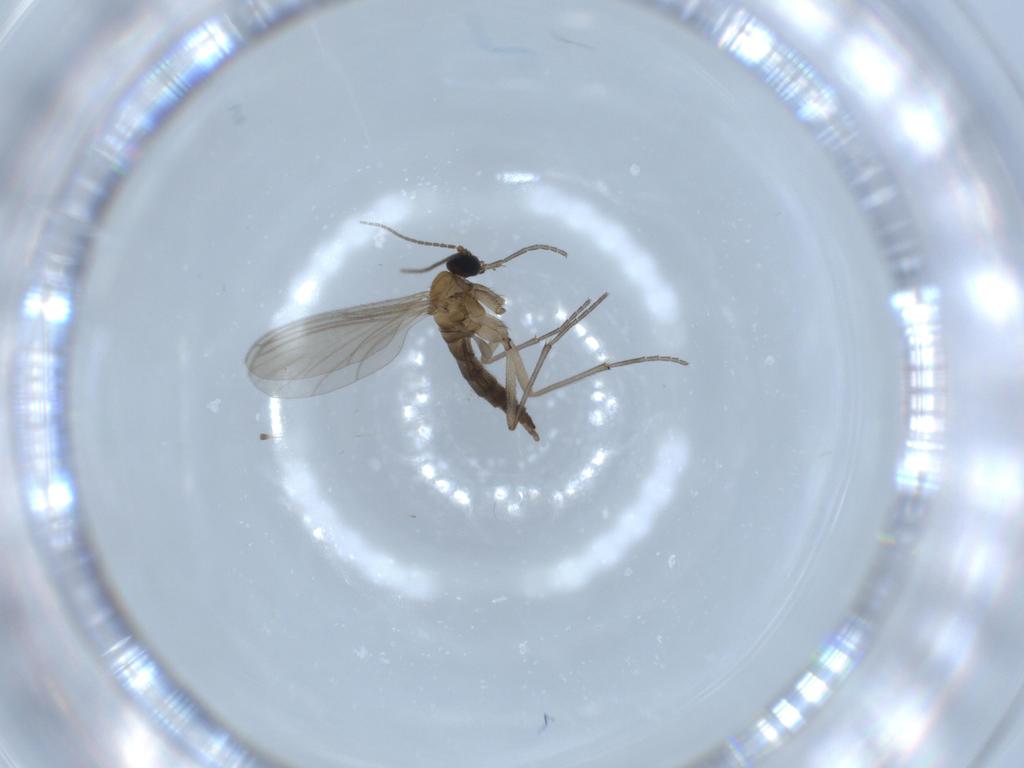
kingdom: Animalia
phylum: Arthropoda
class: Insecta
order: Diptera
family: Sciaridae
